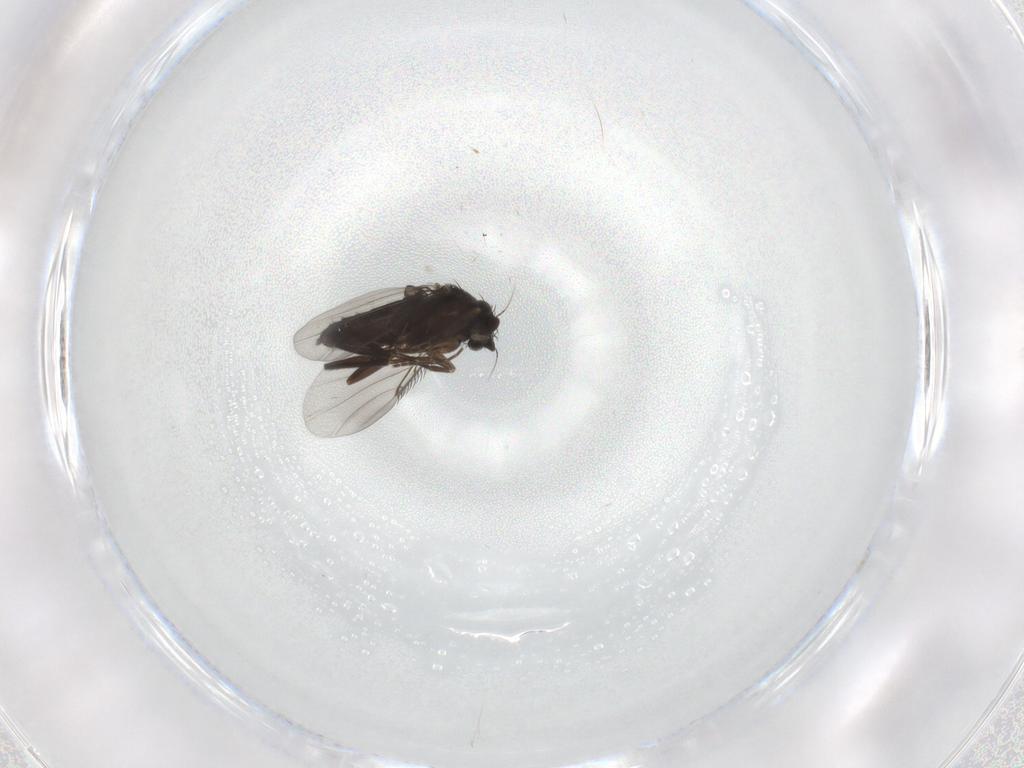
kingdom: Animalia
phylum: Arthropoda
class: Insecta
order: Diptera
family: Phoridae
